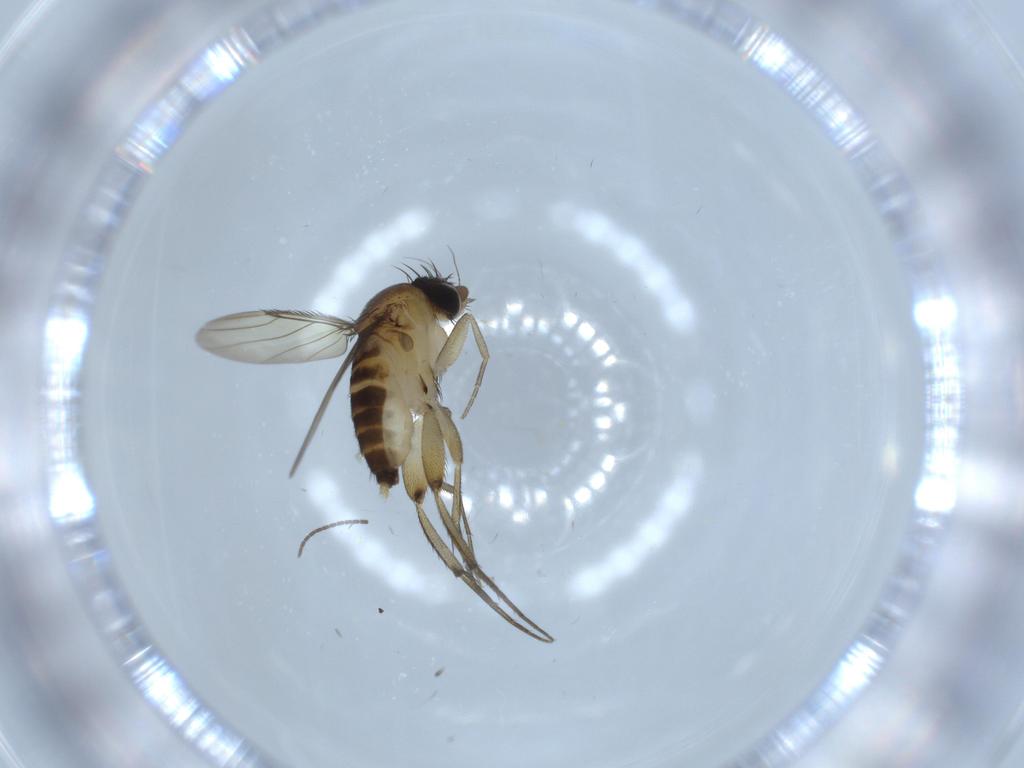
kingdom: Animalia
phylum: Arthropoda
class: Insecta
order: Diptera
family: Phoridae
